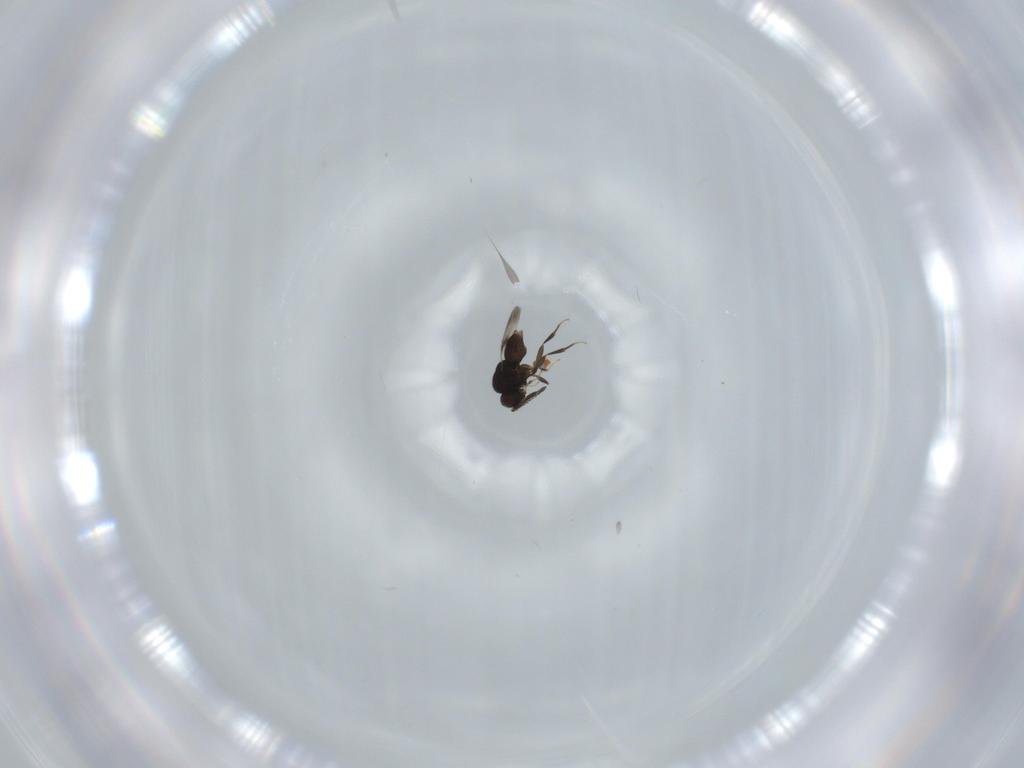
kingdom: Animalia
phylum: Arthropoda
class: Insecta
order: Hymenoptera
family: Ceraphronidae
